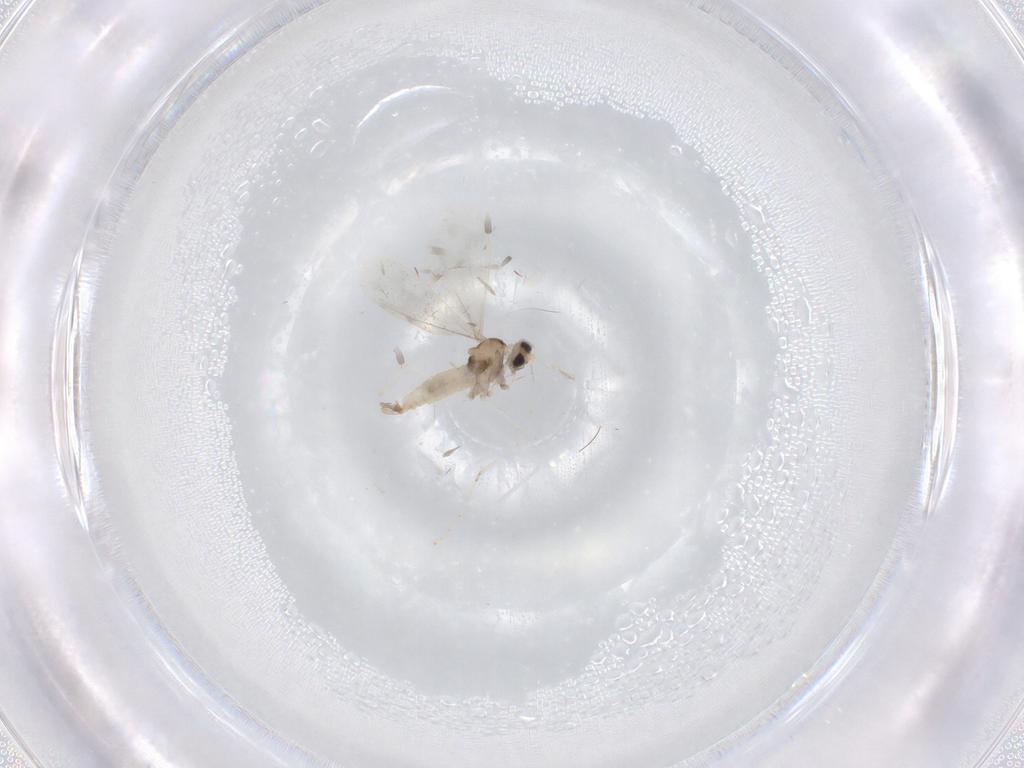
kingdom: Animalia
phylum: Arthropoda
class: Insecta
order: Diptera
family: Cecidomyiidae
